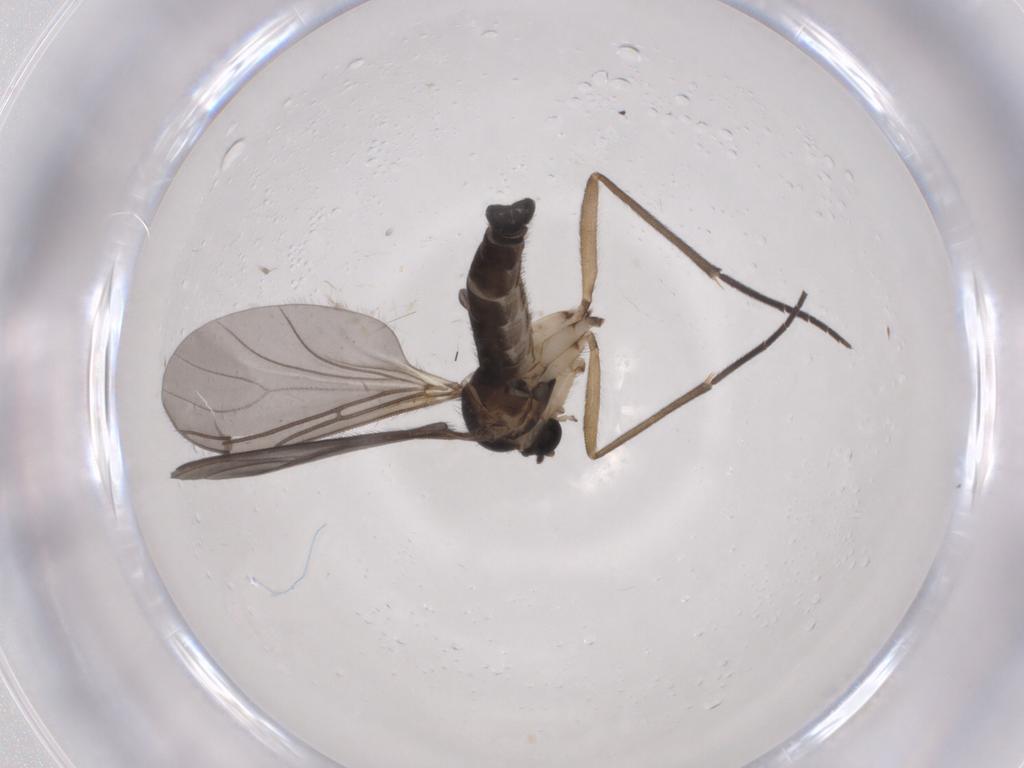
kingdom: Animalia
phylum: Arthropoda
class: Insecta
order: Diptera
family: Sciaridae
